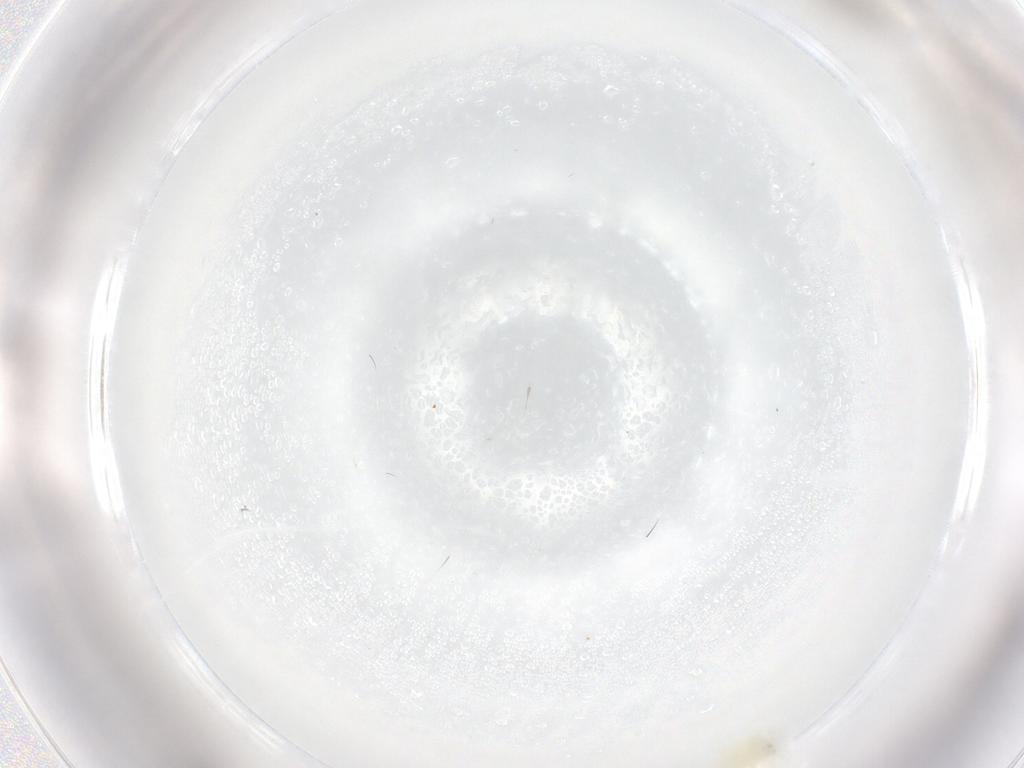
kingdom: Animalia
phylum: Arthropoda
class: Insecta
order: Hemiptera
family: Aleyrodidae
